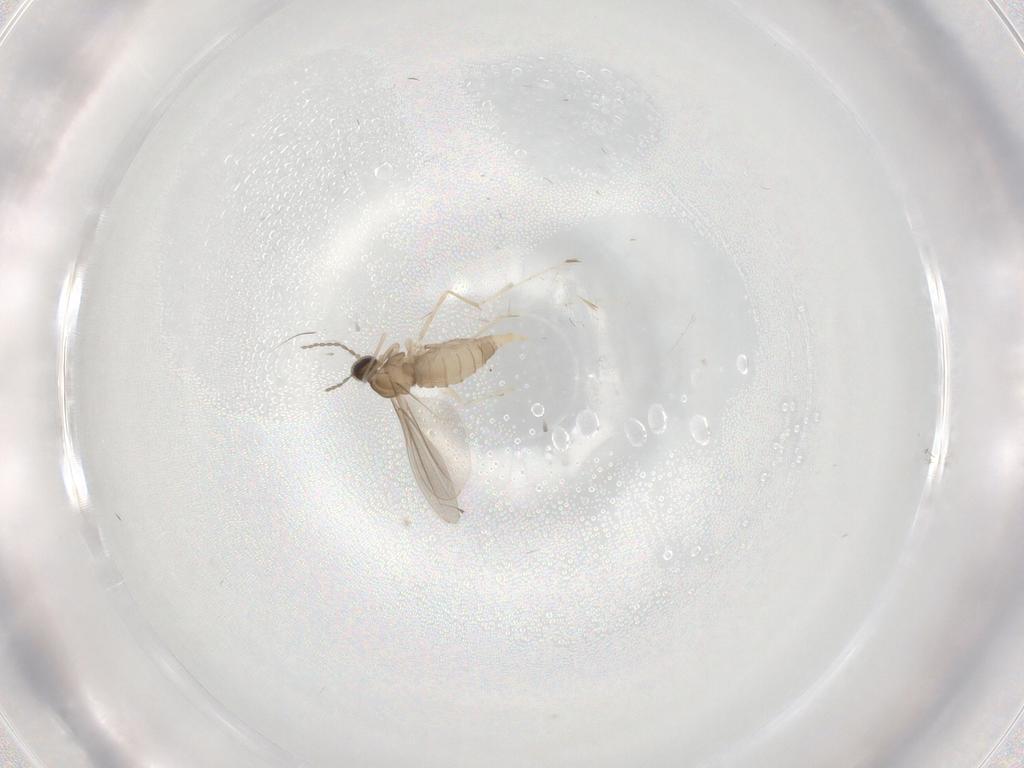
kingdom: Animalia
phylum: Arthropoda
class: Insecta
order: Diptera
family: Cecidomyiidae
